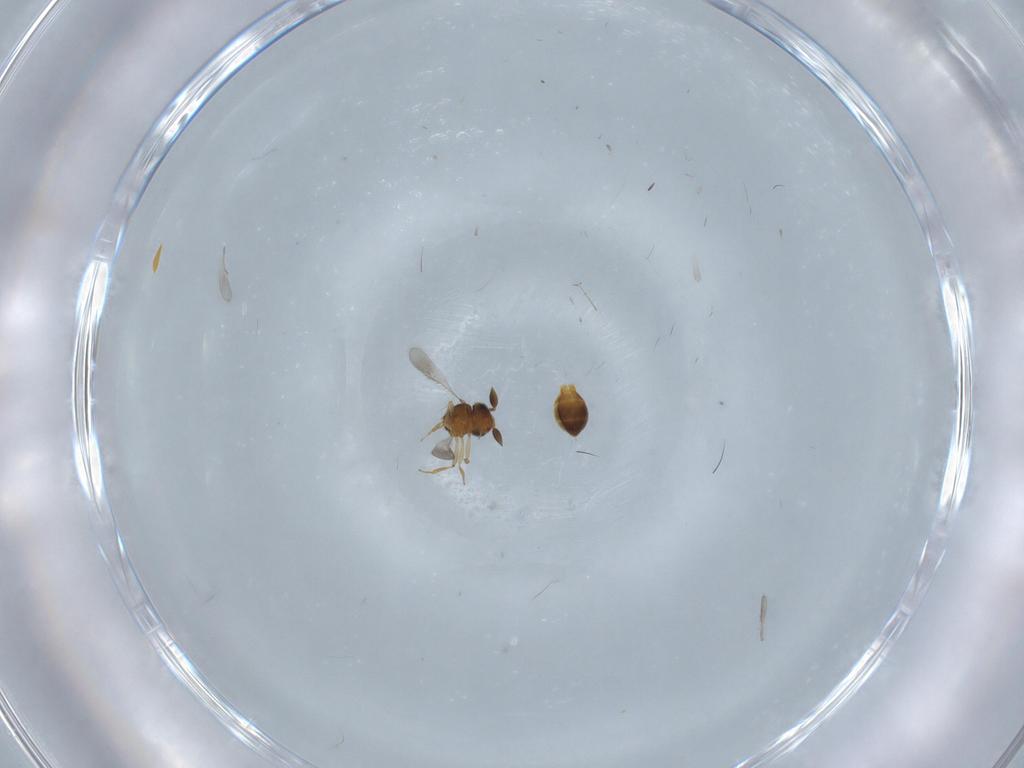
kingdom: Animalia
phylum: Arthropoda
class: Insecta
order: Hymenoptera
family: Scelionidae
